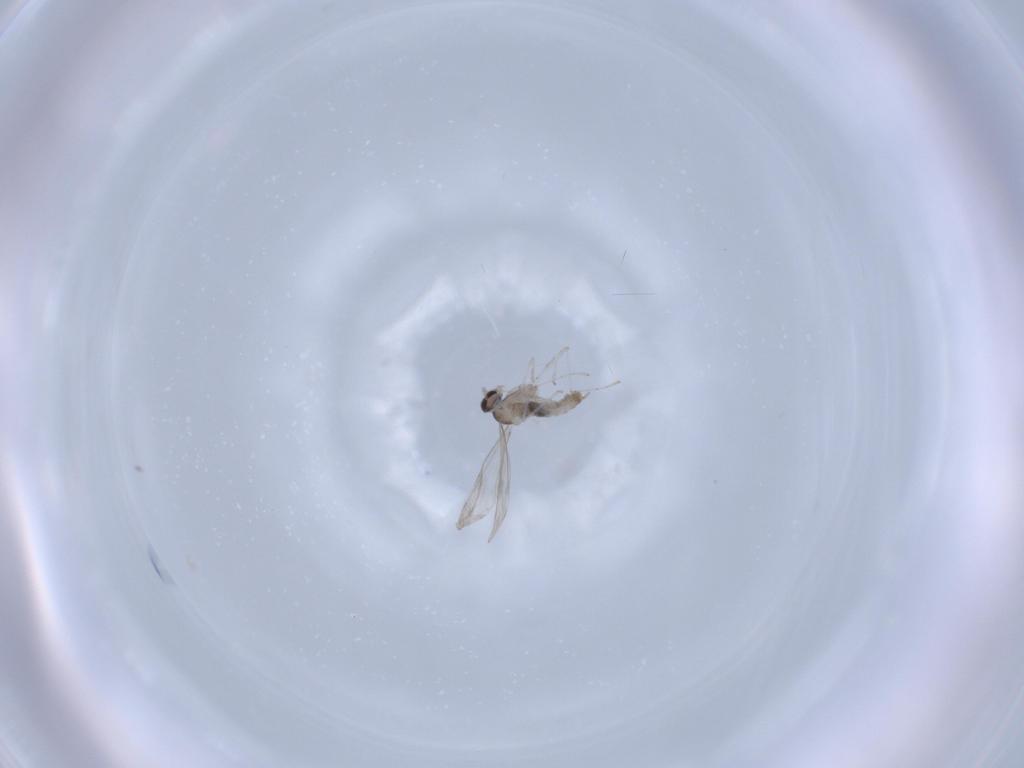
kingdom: Animalia
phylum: Arthropoda
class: Insecta
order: Diptera
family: Cecidomyiidae
